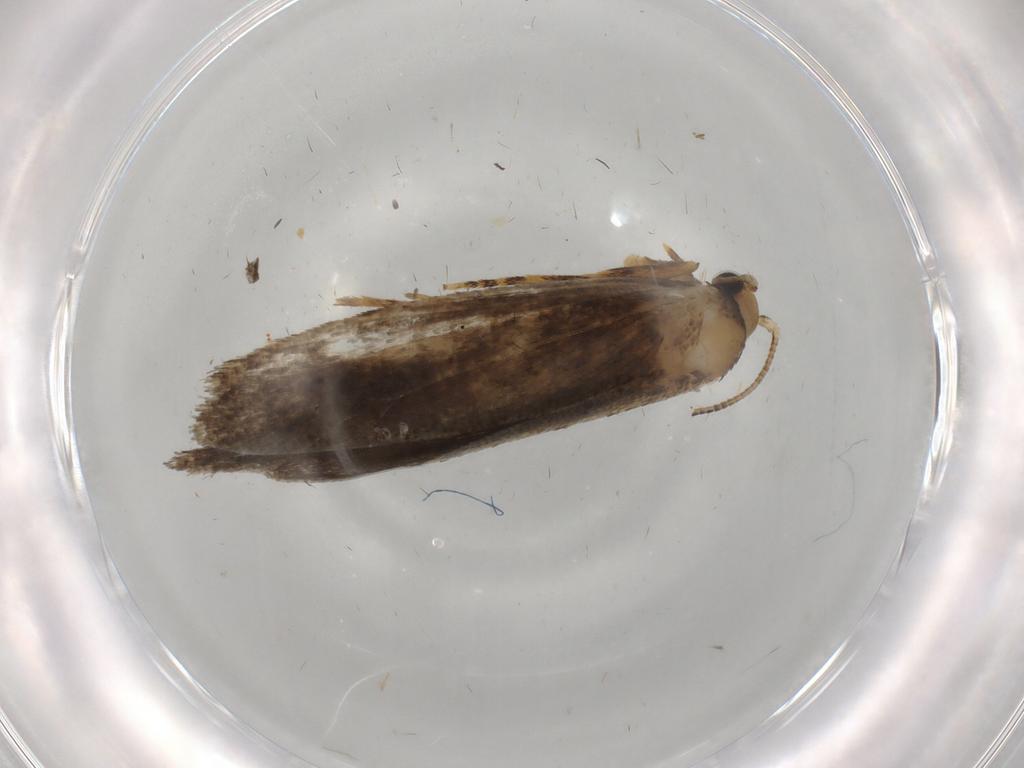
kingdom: Animalia
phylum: Arthropoda
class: Insecta
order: Lepidoptera
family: Tineidae
